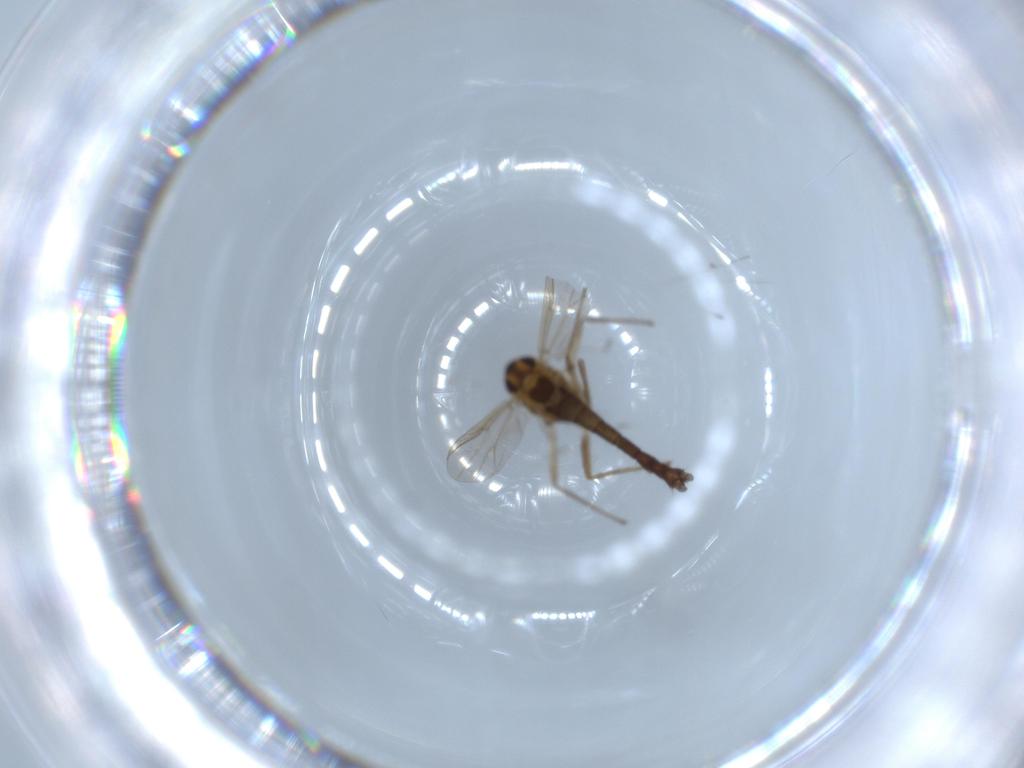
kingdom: Animalia
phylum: Arthropoda
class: Insecta
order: Diptera
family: Chironomidae
